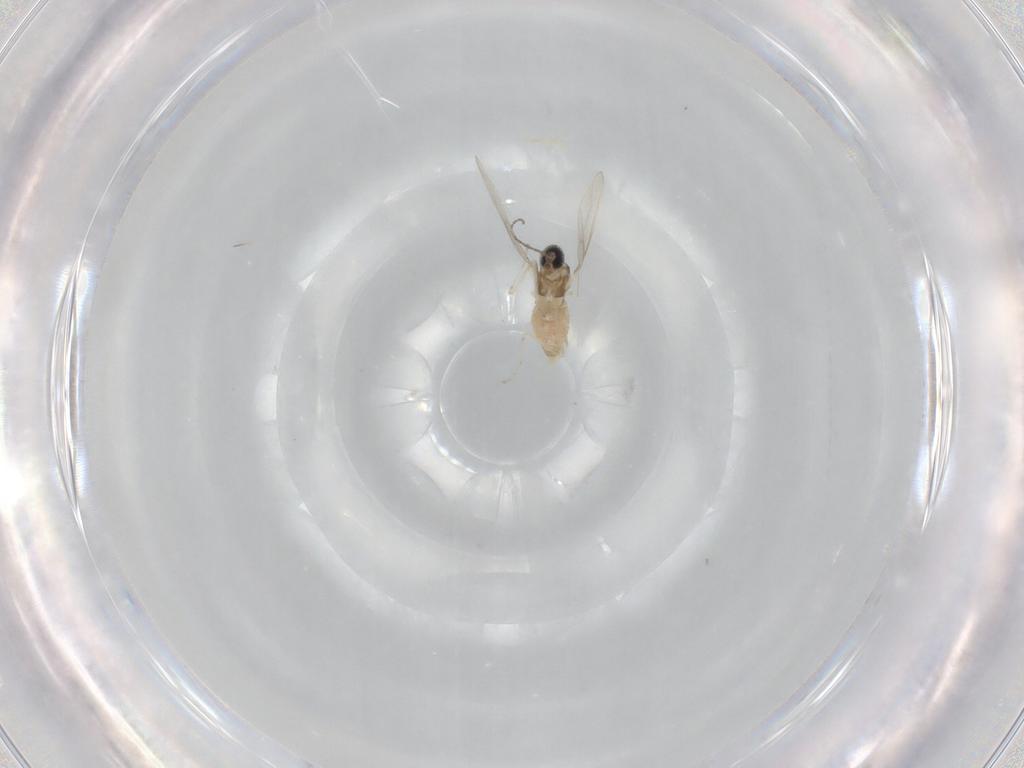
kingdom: Animalia
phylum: Arthropoda
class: Insecta
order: Diptera
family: Cecidomyiidae
